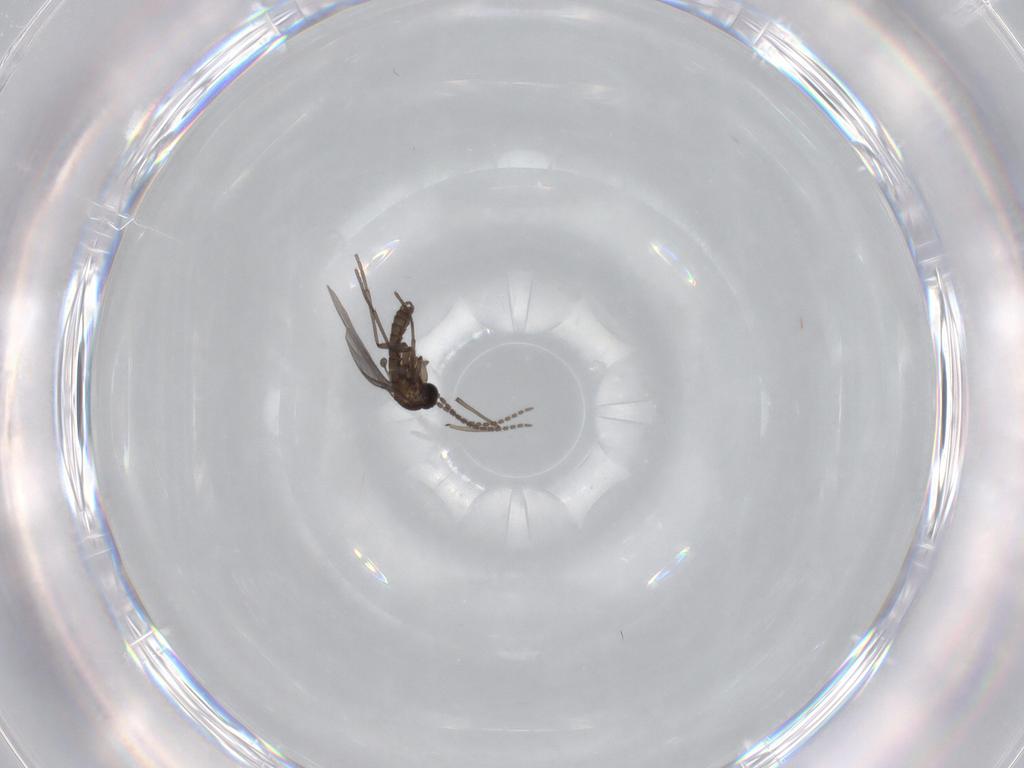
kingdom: Animalia
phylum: Arthropoda
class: Insecta
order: Diptera
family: Sciaridae
